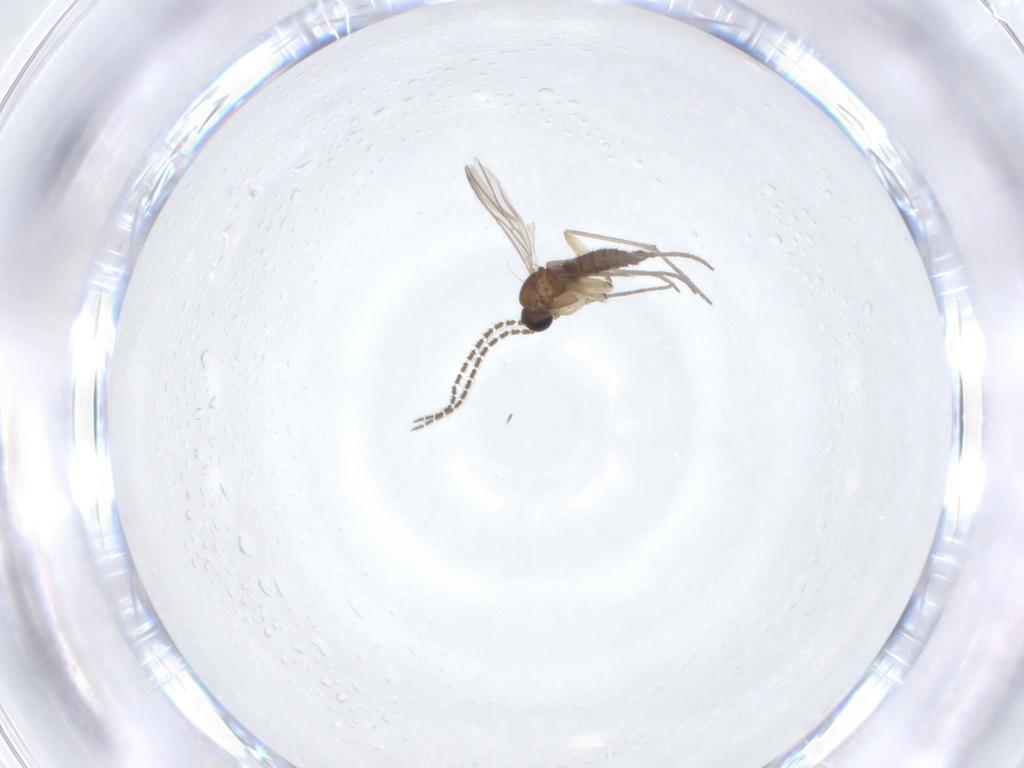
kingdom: Animalia
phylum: Arthropoda
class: Insecta
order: Diptera
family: Sciaridae
